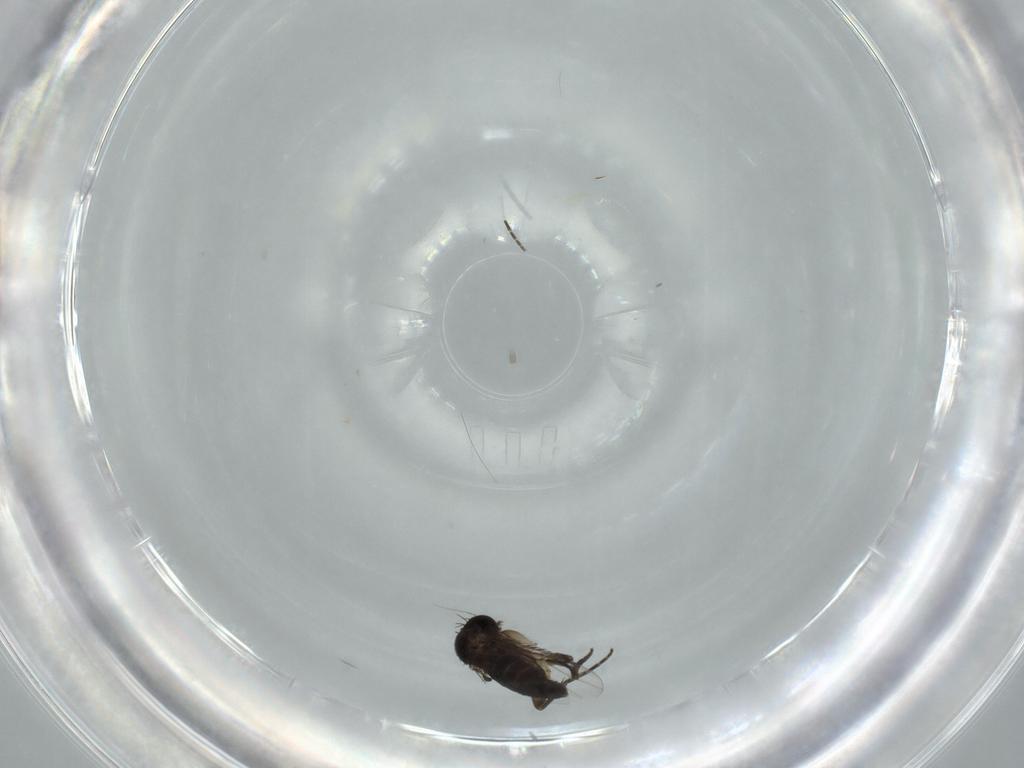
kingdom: Animalia
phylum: Arthropoda
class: Insecta
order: Diptera
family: Phoridae
